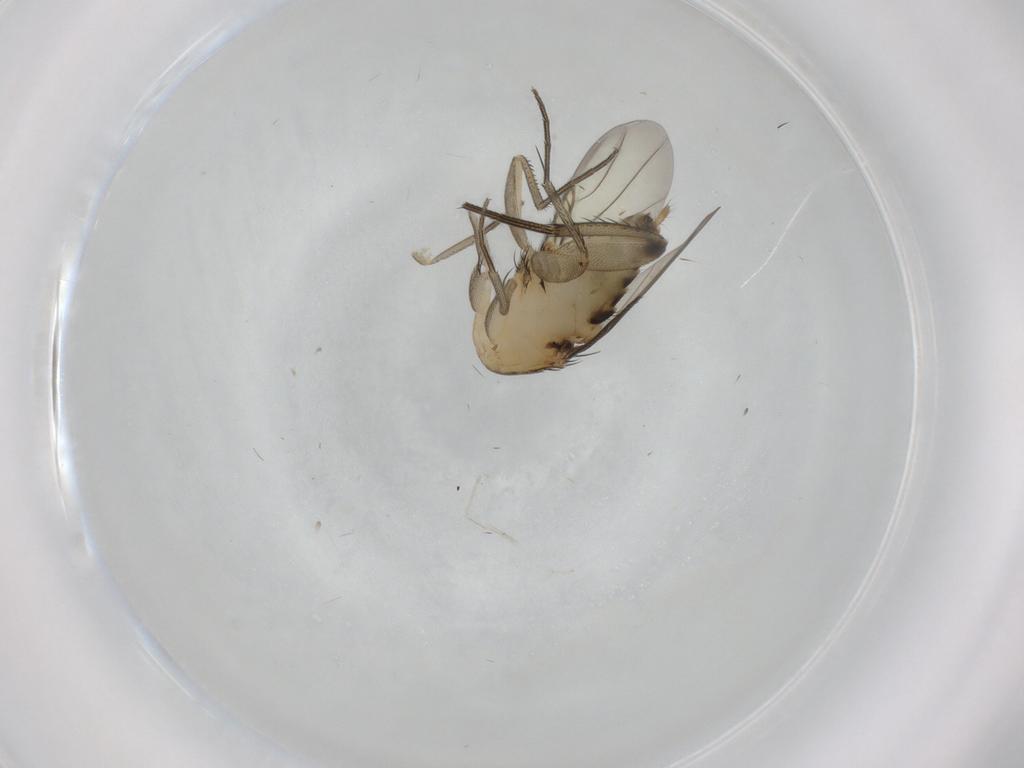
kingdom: Animalia
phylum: Arthropoda
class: Insecta
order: Diptera
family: Phoridae
